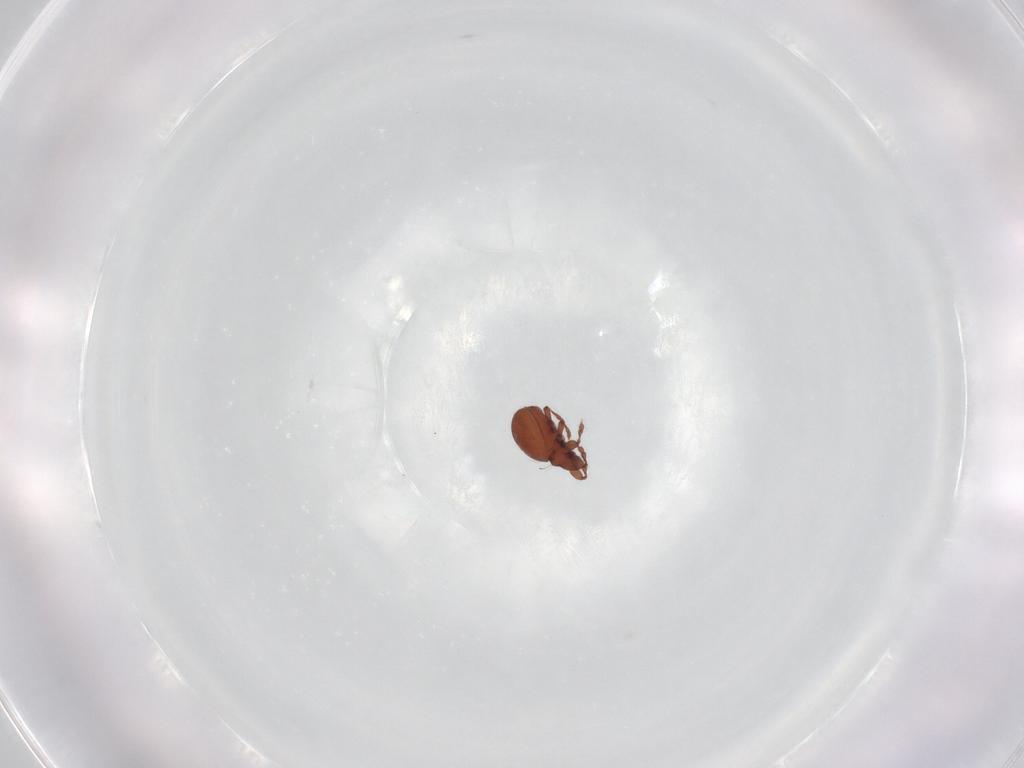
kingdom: Animalia
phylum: Arthropoda
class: Arachnida
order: Sarcoptiformes
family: Eremaeidae
